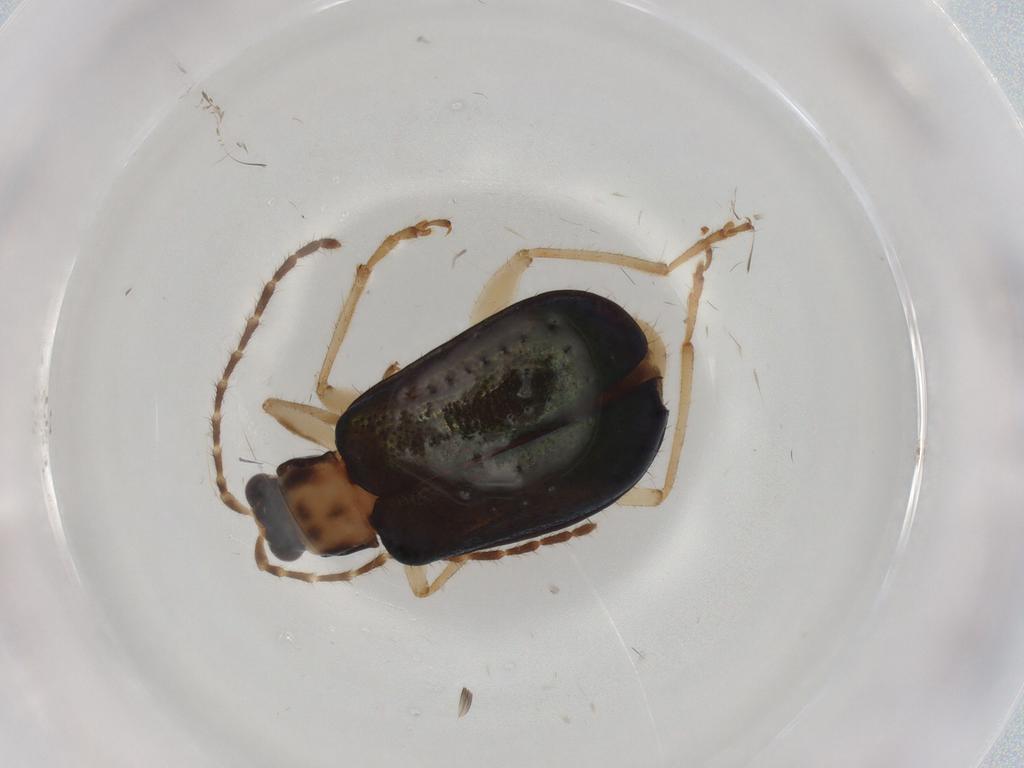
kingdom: Animalia
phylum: Arthropoda
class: Insecta
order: Coleoptera
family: Chrysomelidae
